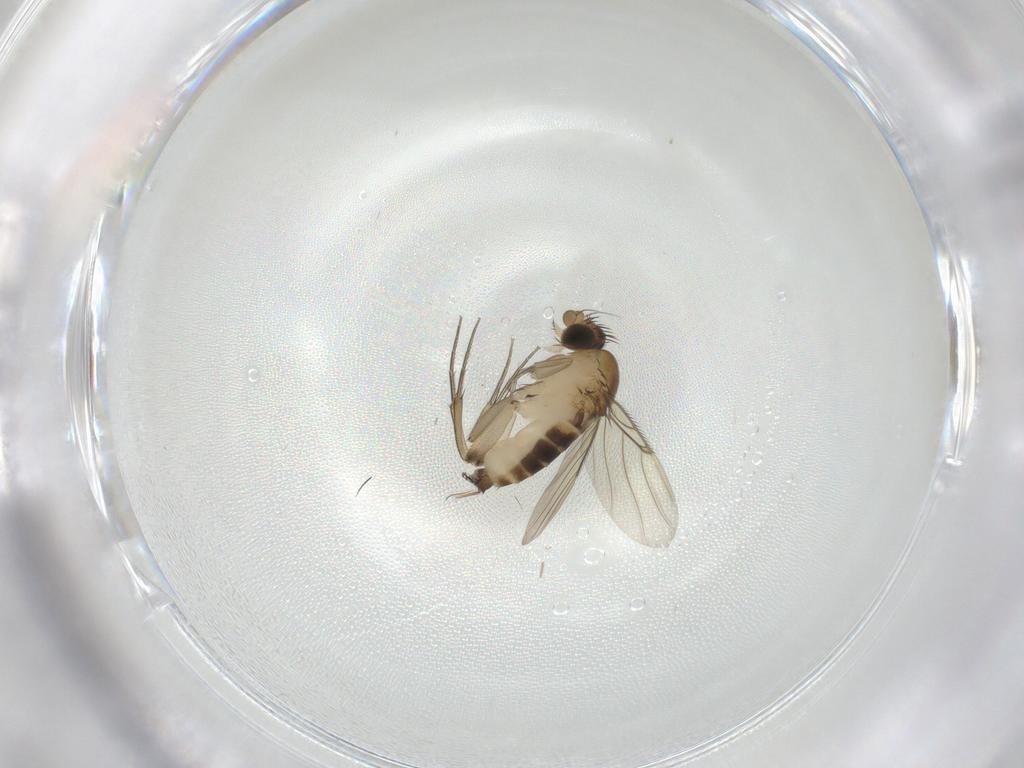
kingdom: Animalia
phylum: Arthropoda
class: Insecta
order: Diptera
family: Phoridae
